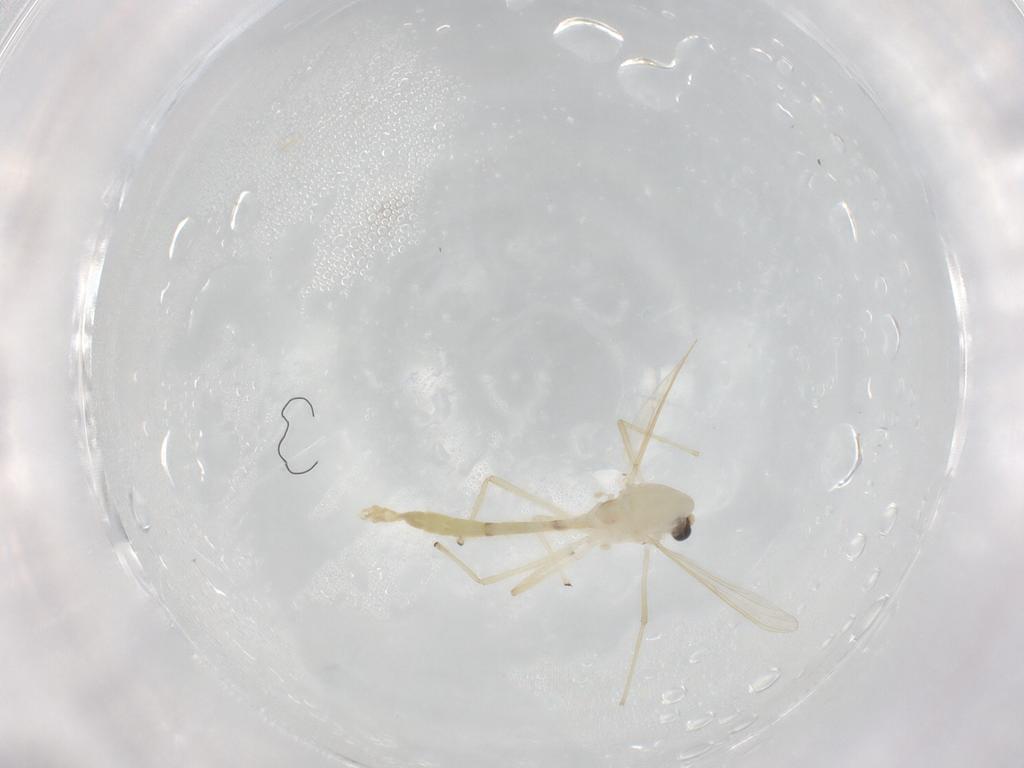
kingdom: Animalia
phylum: Arthropoda
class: Insecta
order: Diptera
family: Chironomidae
